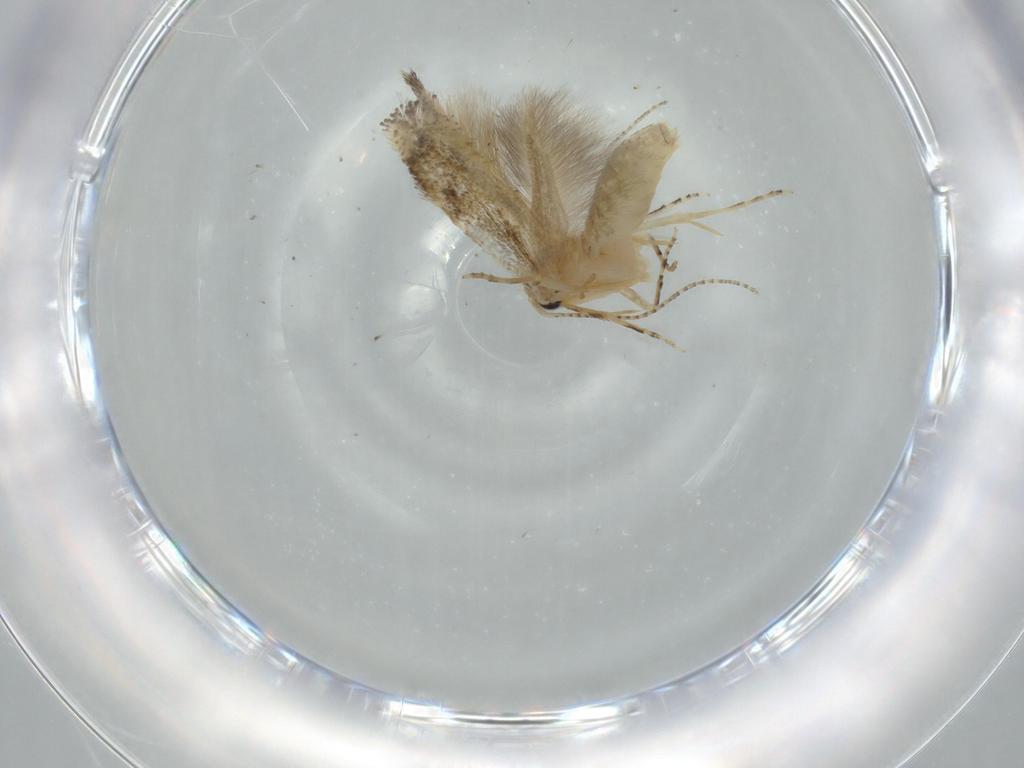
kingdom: Animalia
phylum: Arthropoda
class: Insecta
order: Lepidoptera
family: Bucculatricidae
